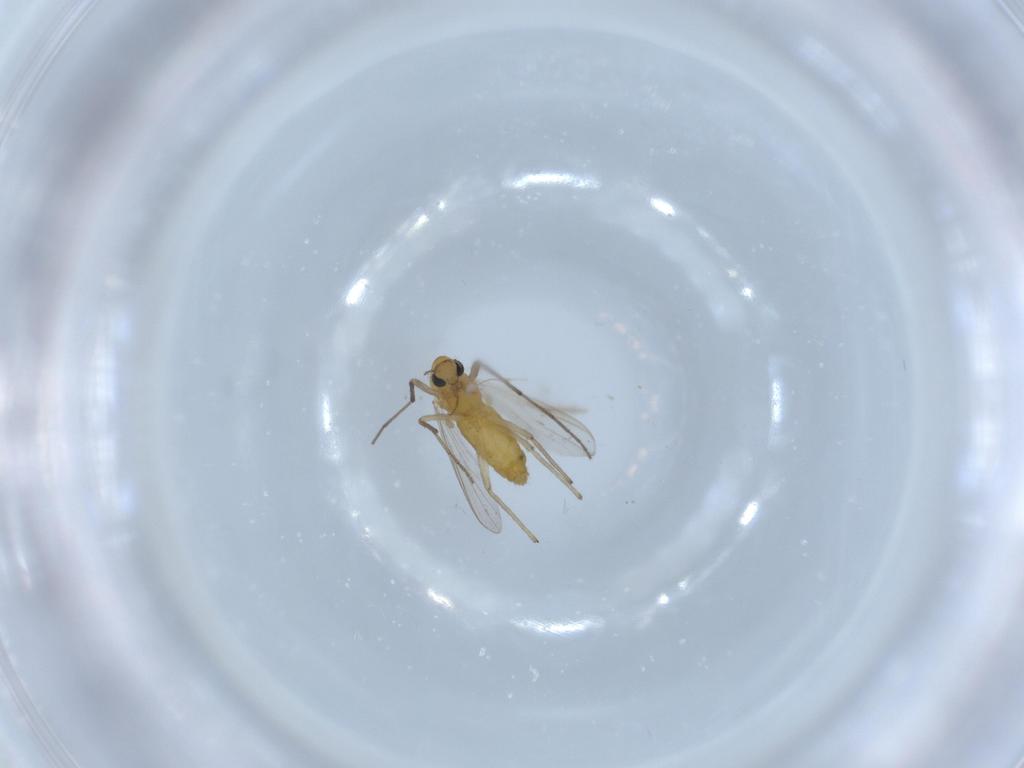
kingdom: Animalia
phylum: Arthropoda
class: Insecta
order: Diptera
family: Chironomidae
